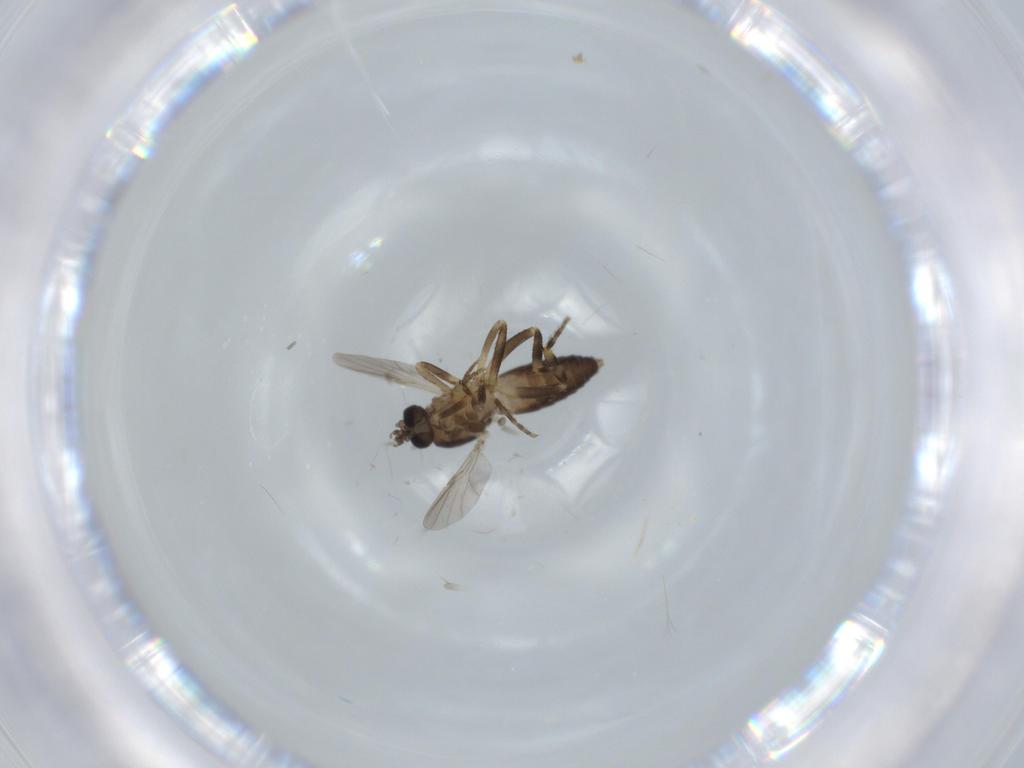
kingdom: Animalia
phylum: Arthropoda
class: Insecta
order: Diptera
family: Ceratopogonidae
